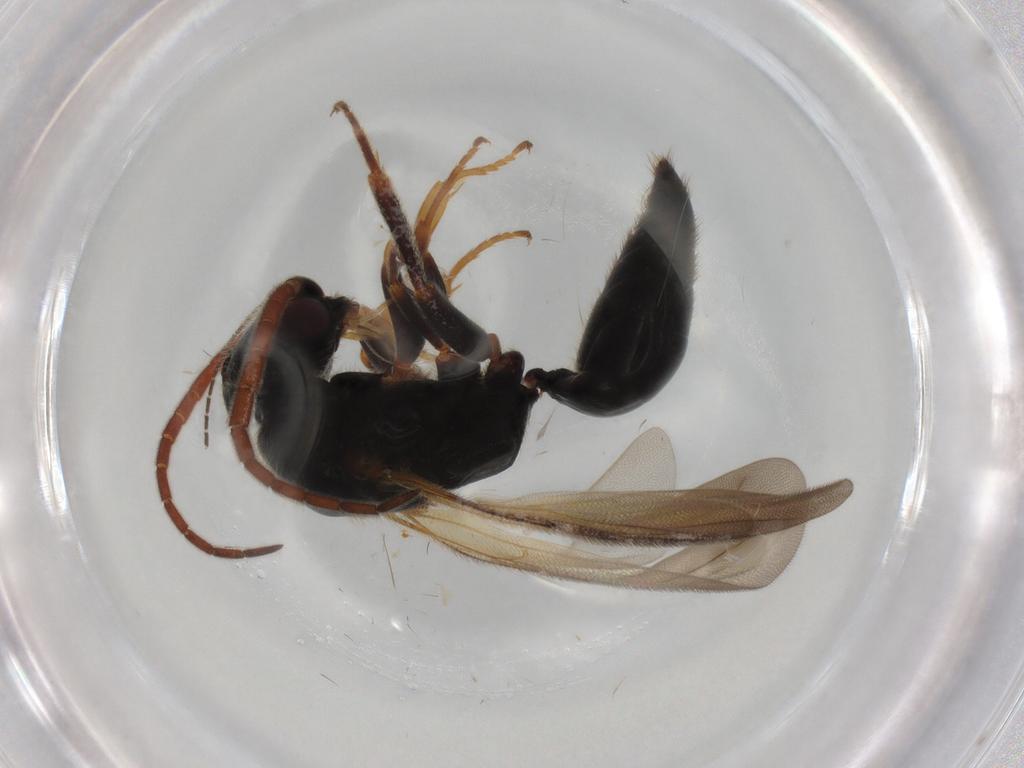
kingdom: Animalia
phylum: Arthropoda
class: Insecta
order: Hymenoptera
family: Bethylidae
